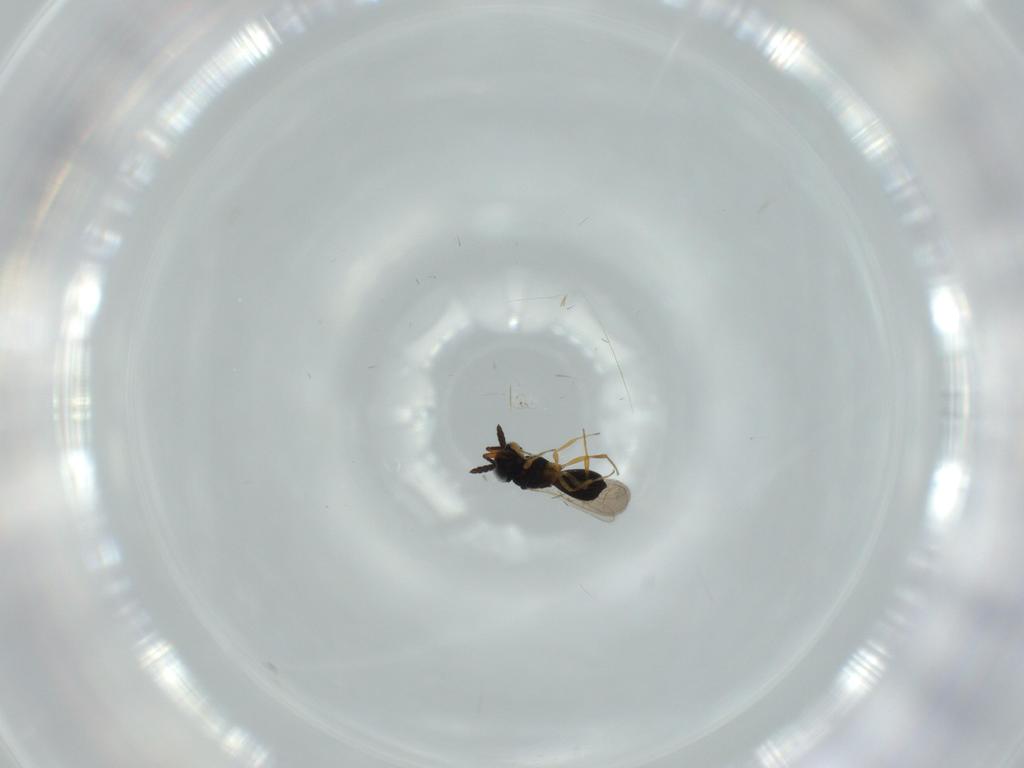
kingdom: Animalia
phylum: Arthropoda
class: Insecta
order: Hymenoptera
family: Scelionidae
